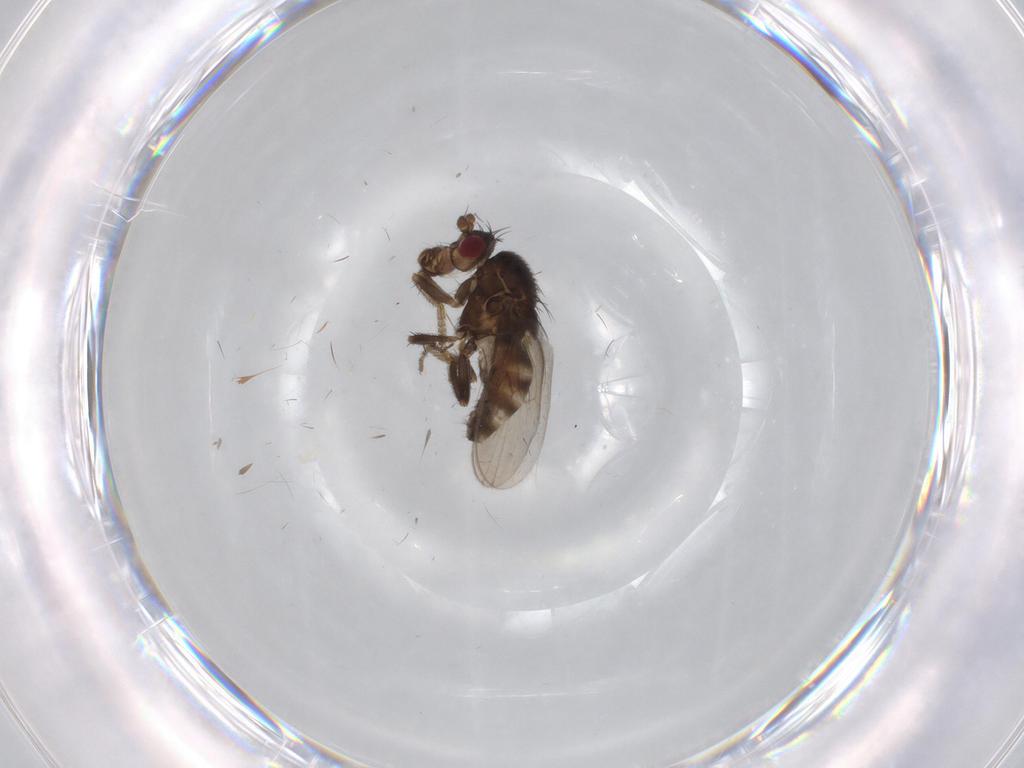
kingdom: Animalia
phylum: Arthropoda
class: Insecta
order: Diptera
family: Sphaeroceridae
